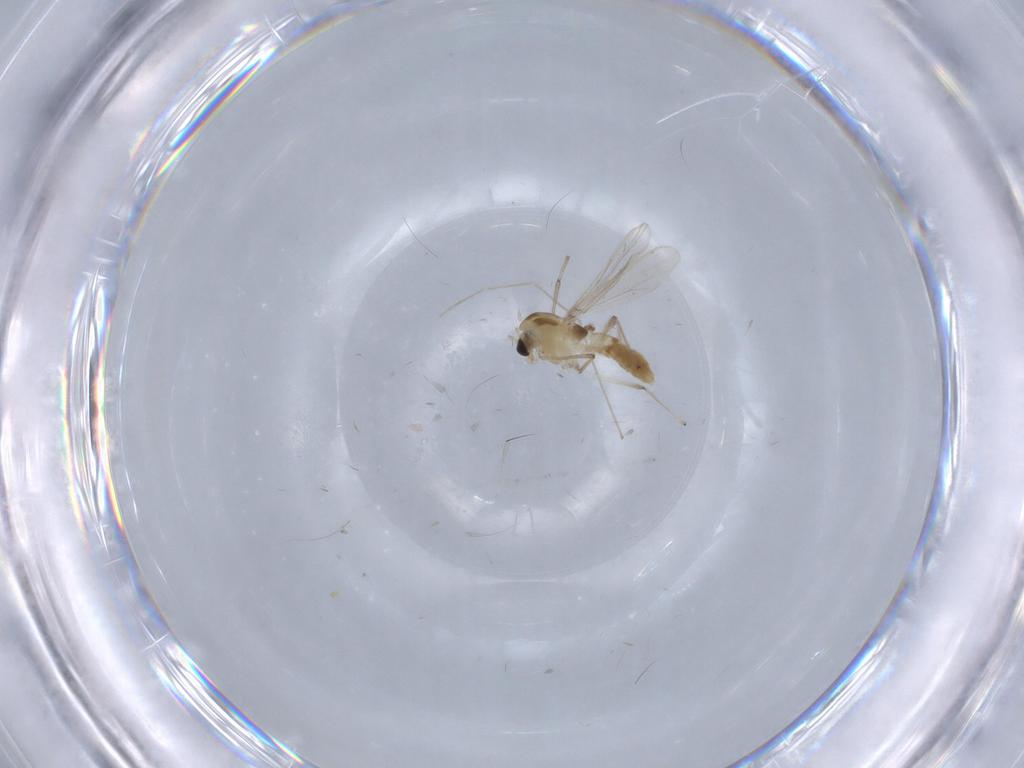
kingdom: Animalia
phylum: Arthropoda
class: Insecta
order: Diptera
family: Chironomidae
